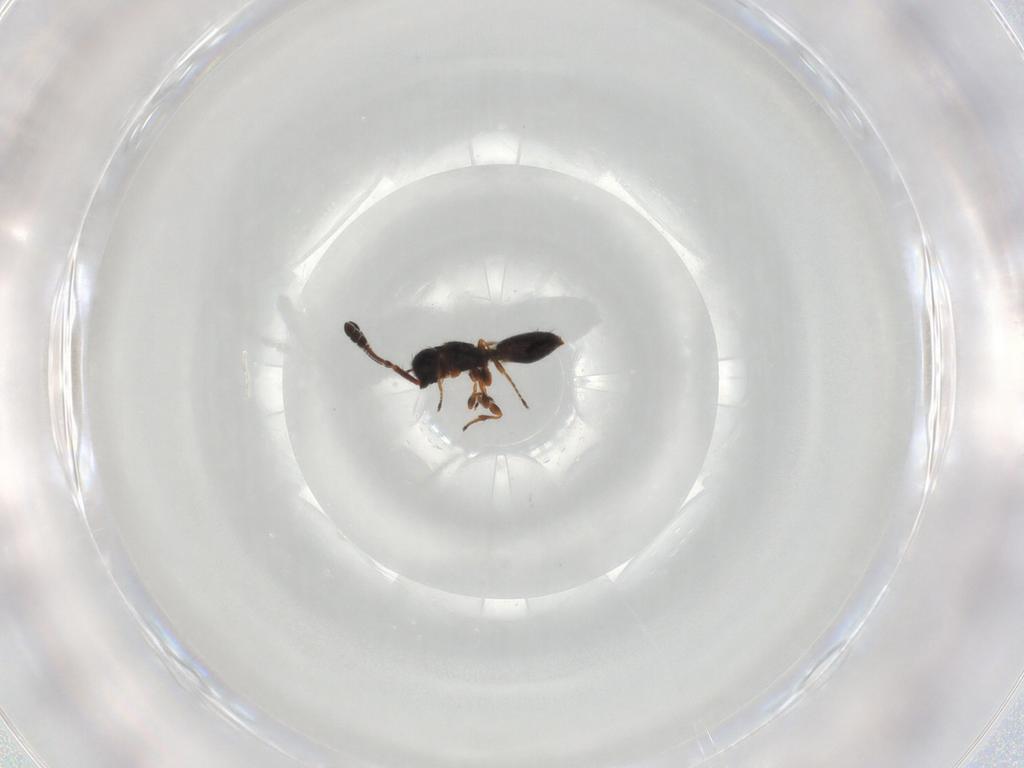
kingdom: Animalia
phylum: Arthropoda
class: Insecta
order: Hymenoptera
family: Diapriidae
